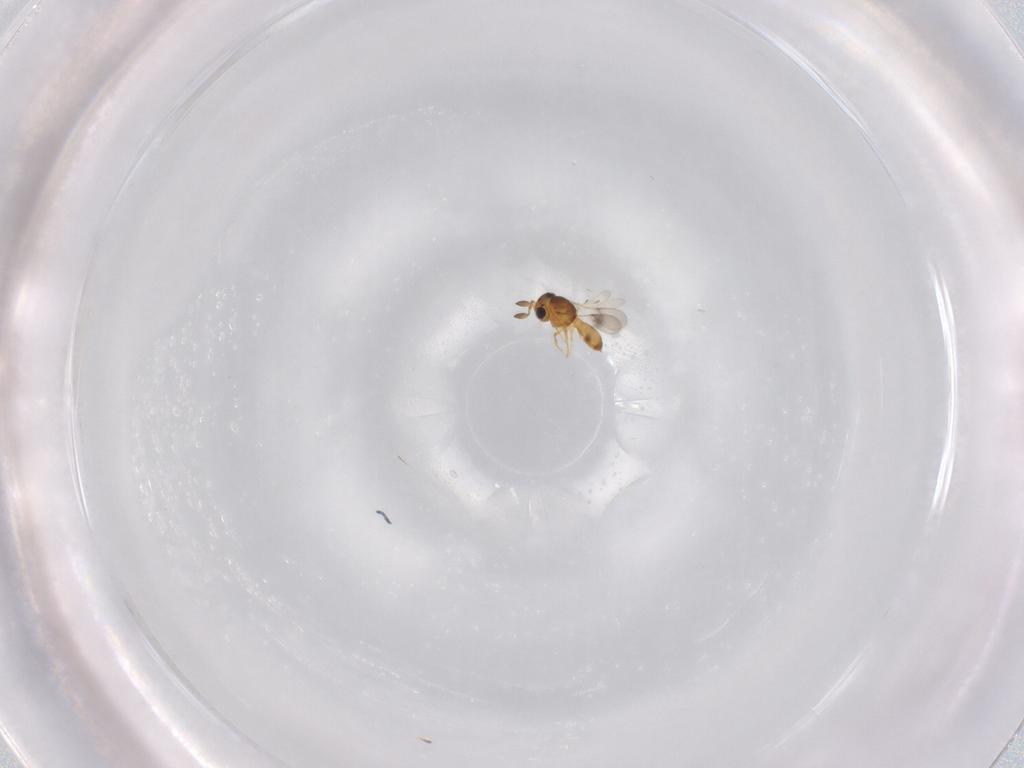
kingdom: Animalia
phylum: Arthropoda
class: Insecta
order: Hymenoptera
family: Scelionidae
